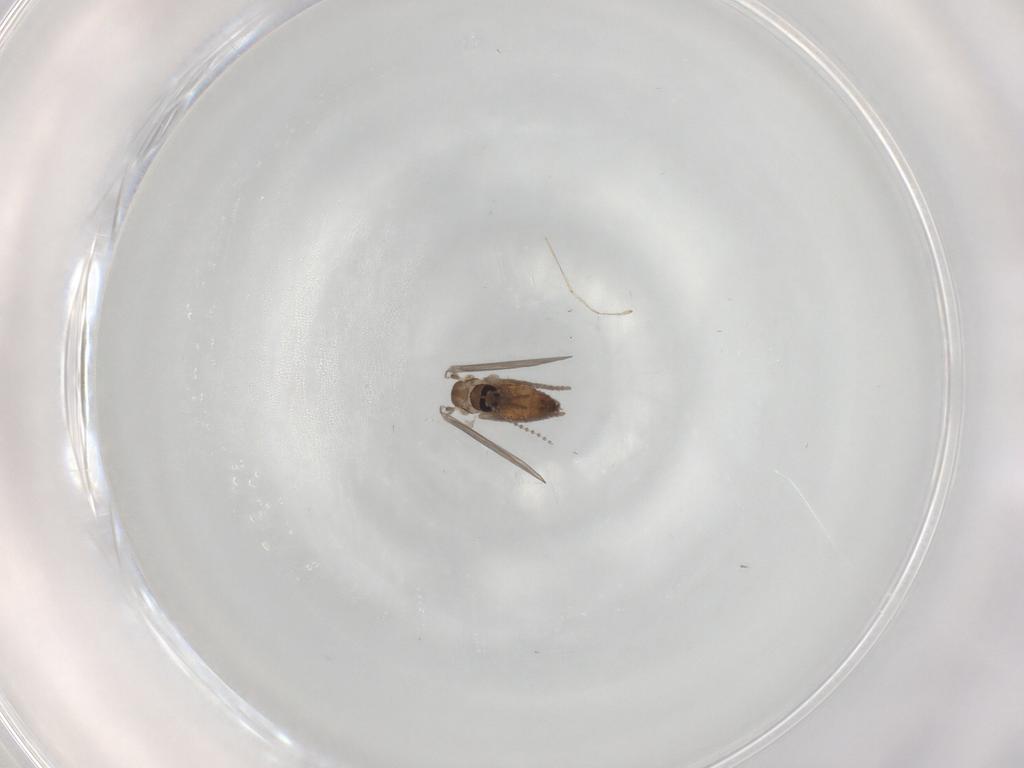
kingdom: Animalia
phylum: Arthropoda
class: Insecta
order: Diptera
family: Psychodidae
